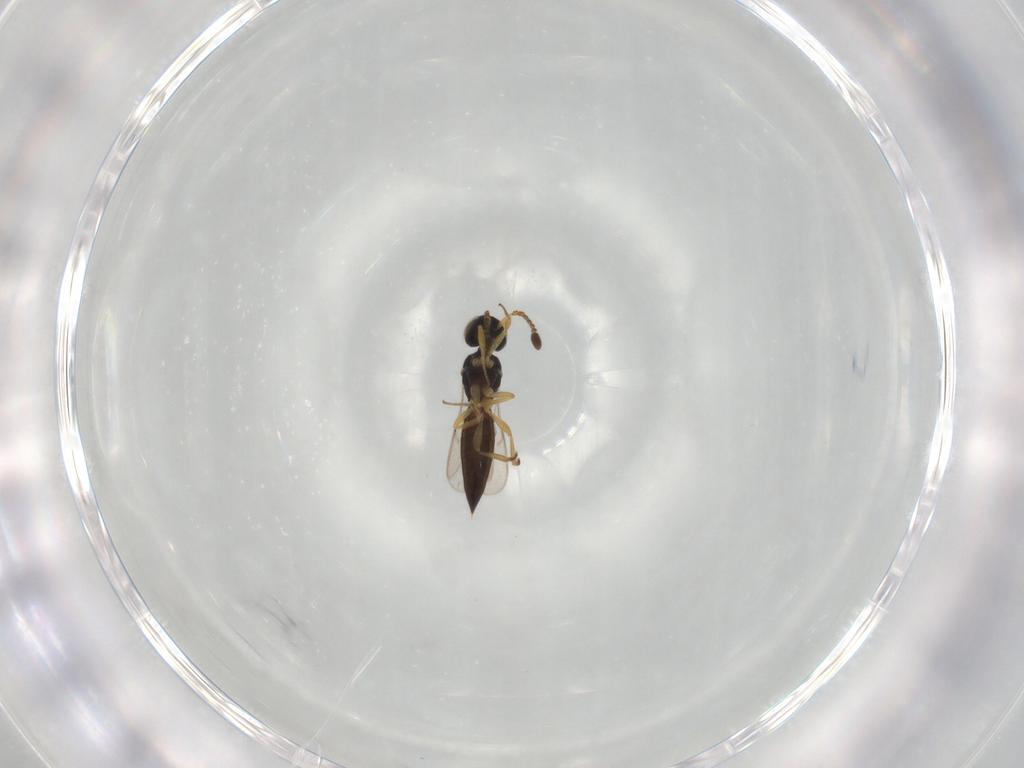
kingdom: Animalia
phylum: Arthropoda
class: Insecta
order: Hymenoptera
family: Scelionidae
